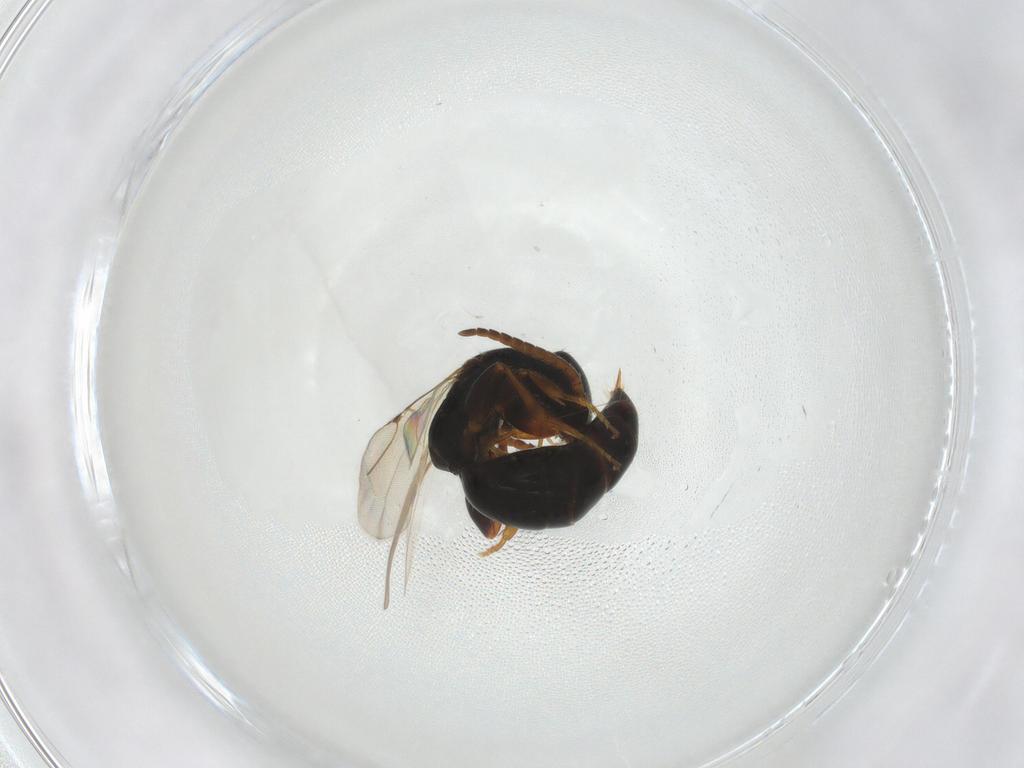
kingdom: Animalia
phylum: Arthropoda
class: Insecta
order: Hymenoptera
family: Bethylidae
